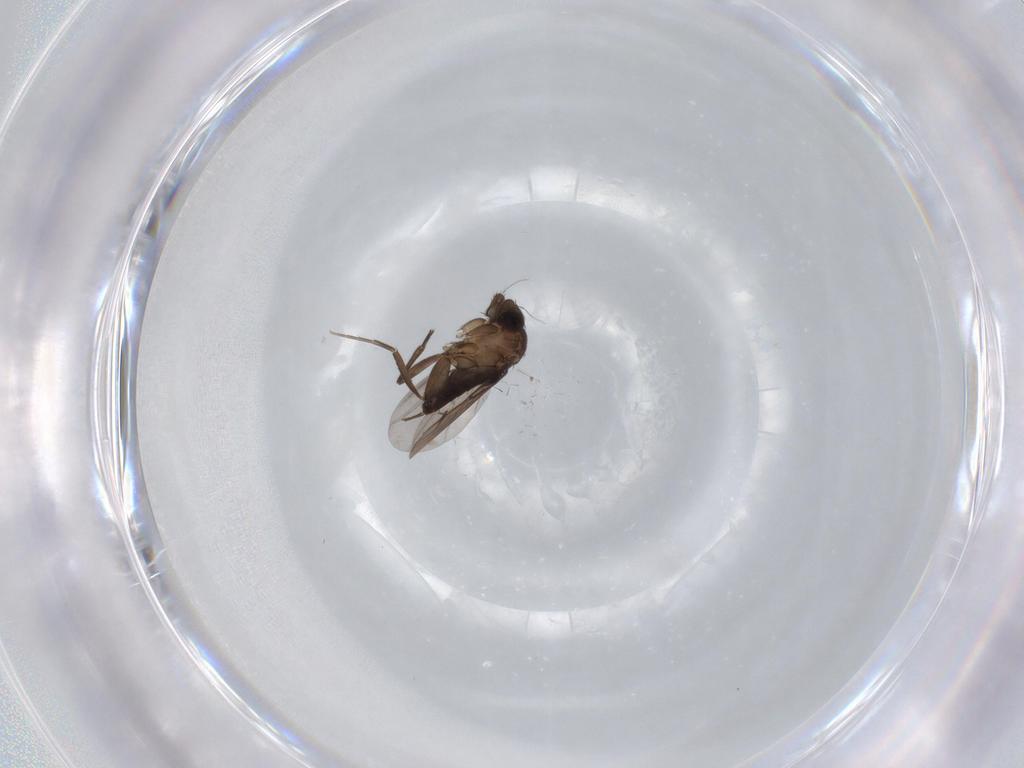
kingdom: Animalia
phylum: Arthropoda
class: Insecta
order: Diptera
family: Phoridae
